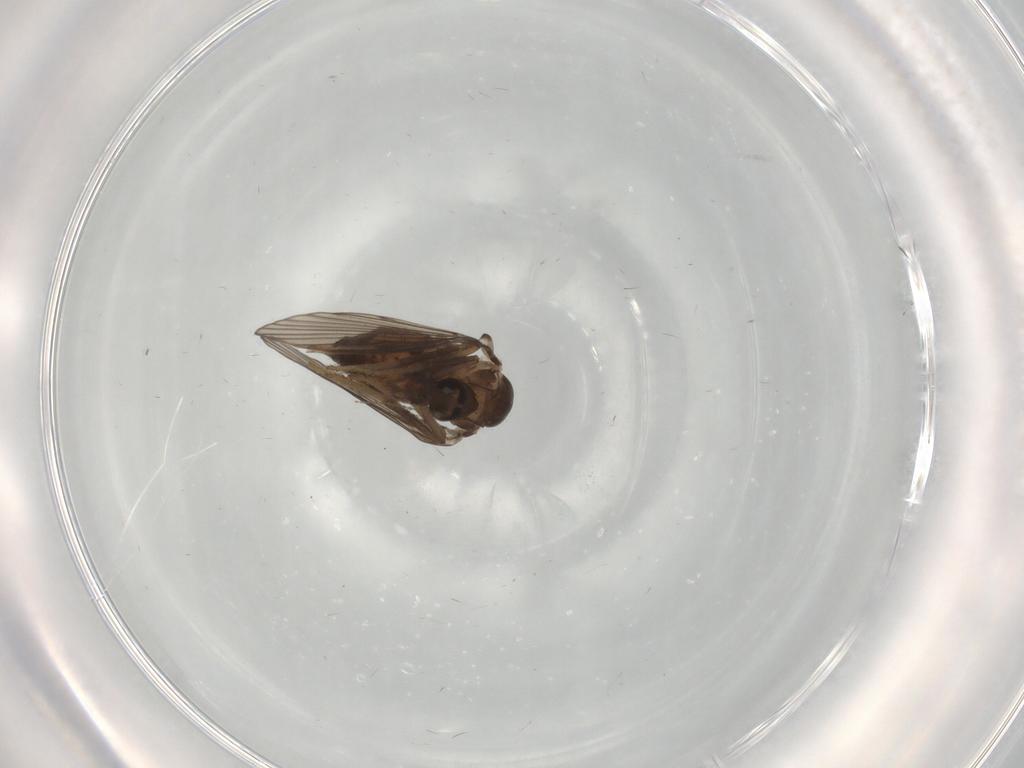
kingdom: Animalia
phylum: Arthropoda
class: Insecta
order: Diptera
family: Psychodidae
